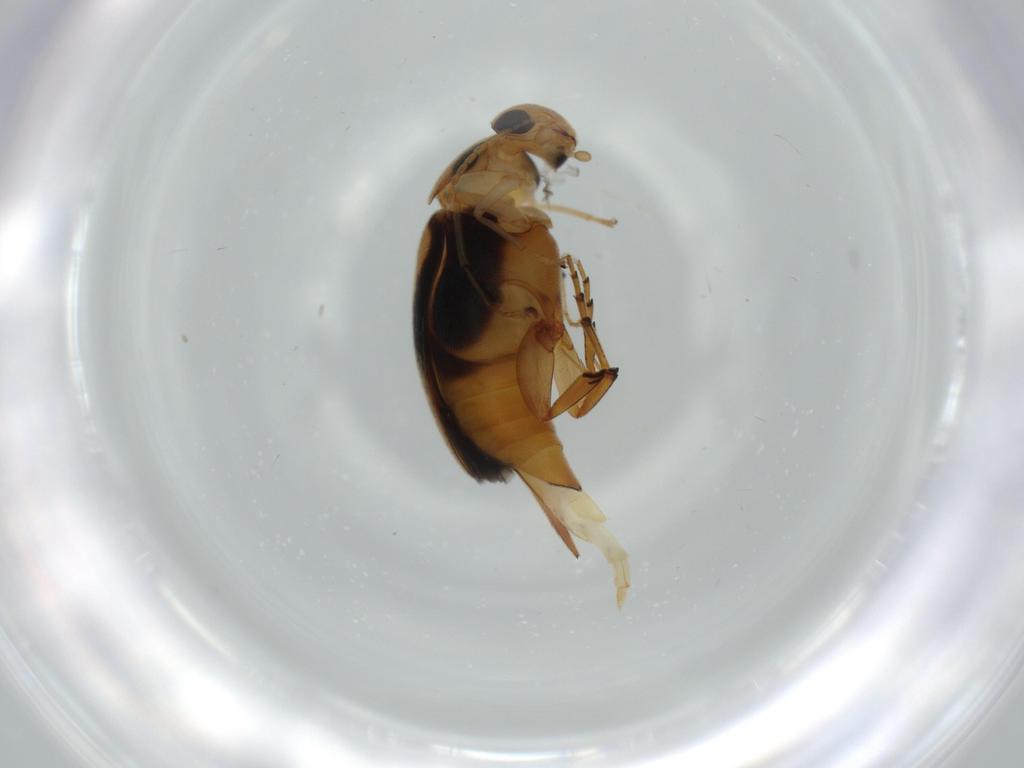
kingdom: Animalia
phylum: Arthropoda
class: Insecta
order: Coleoptera
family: Mordellidae
